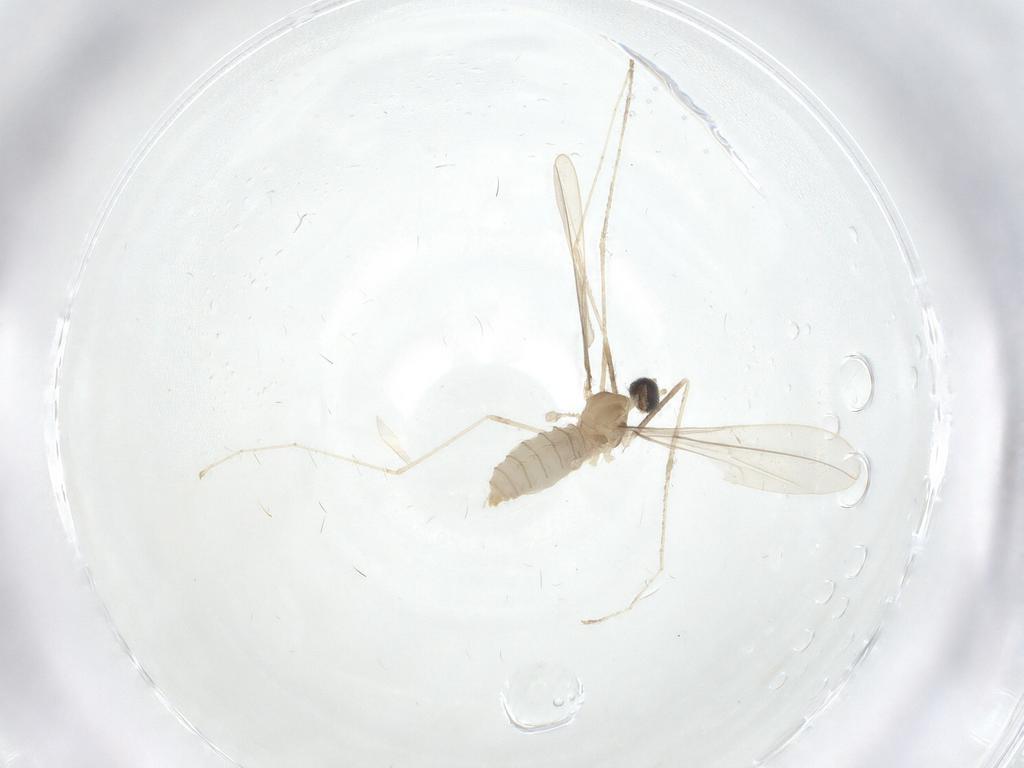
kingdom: Animalia
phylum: Arthropoda
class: Insecta
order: Diptera
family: Cecidomyiidae
